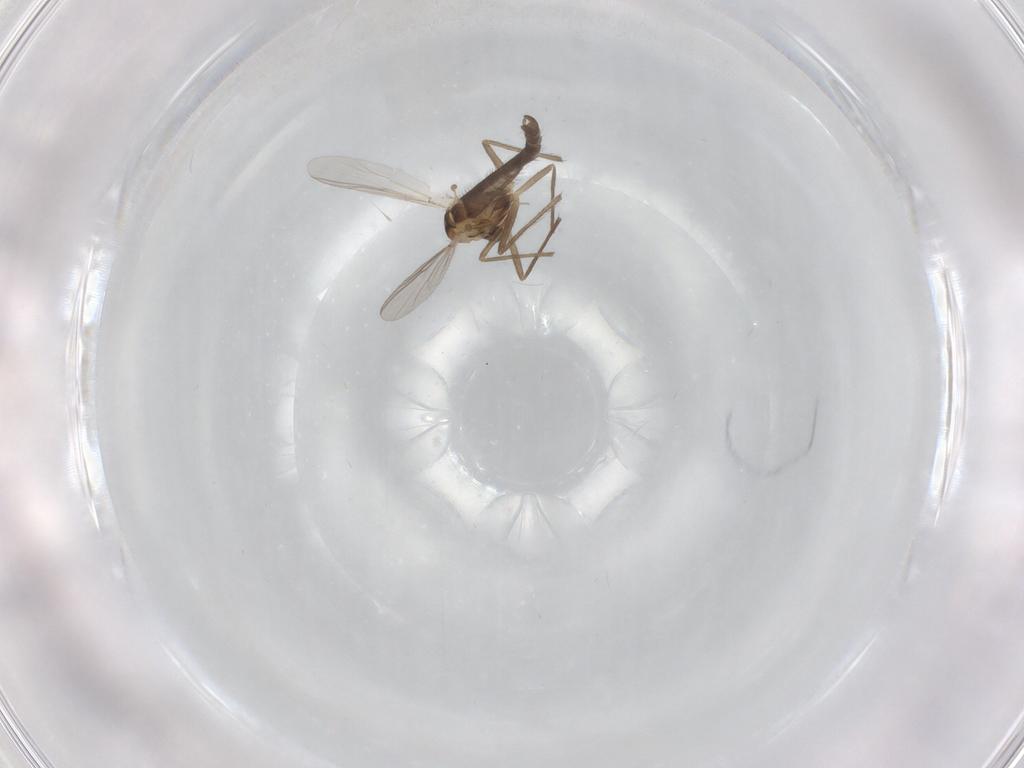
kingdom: Animalia
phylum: Arthropoda
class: Insecta
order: Diptera
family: Chironomidae
